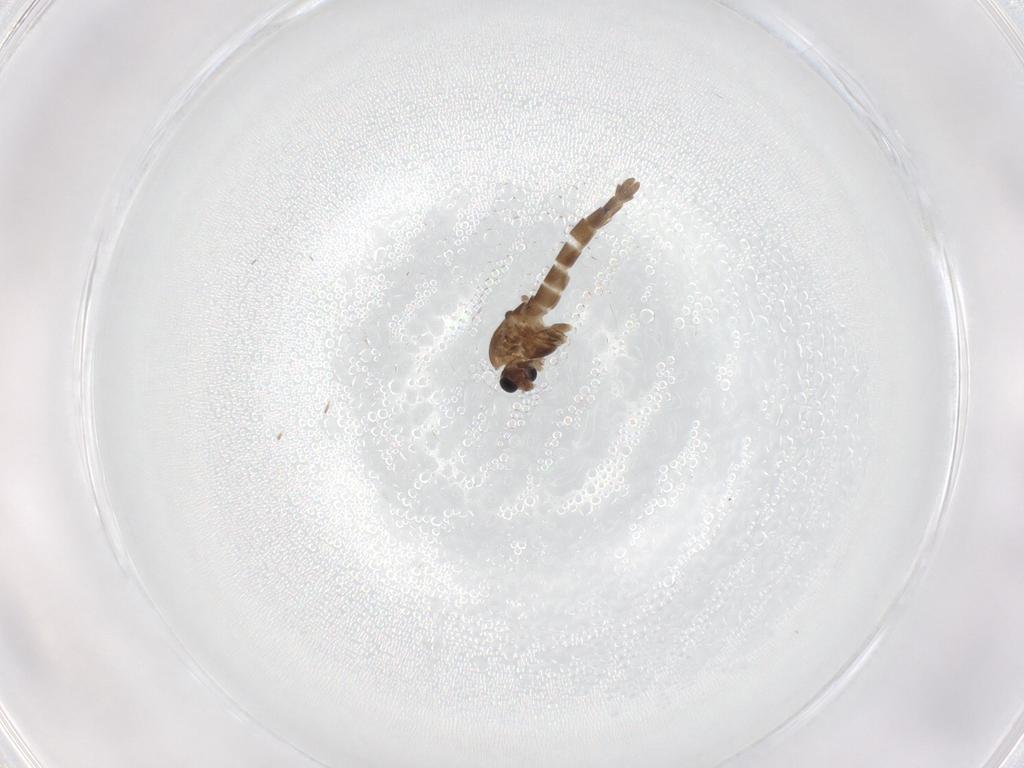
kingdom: Animalia
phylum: Arthropoda
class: Insecta
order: Diptera
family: Chironomidae
